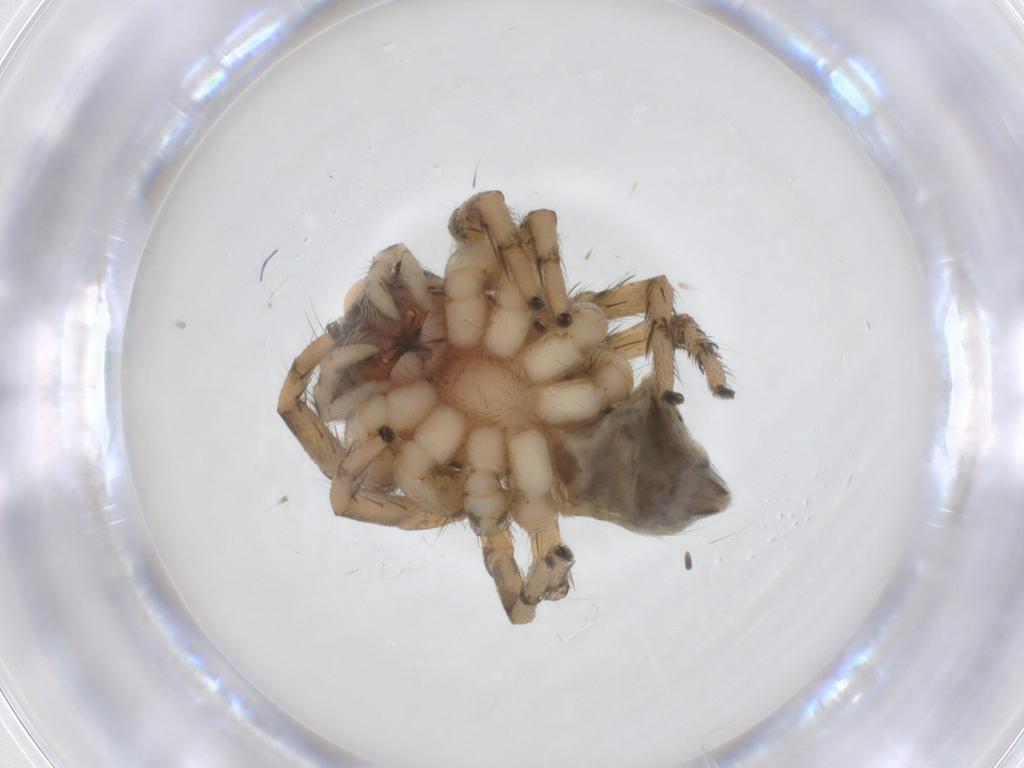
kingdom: Animalia
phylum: Arthropoda
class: Arachnida
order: Araneae
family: Salticidae
